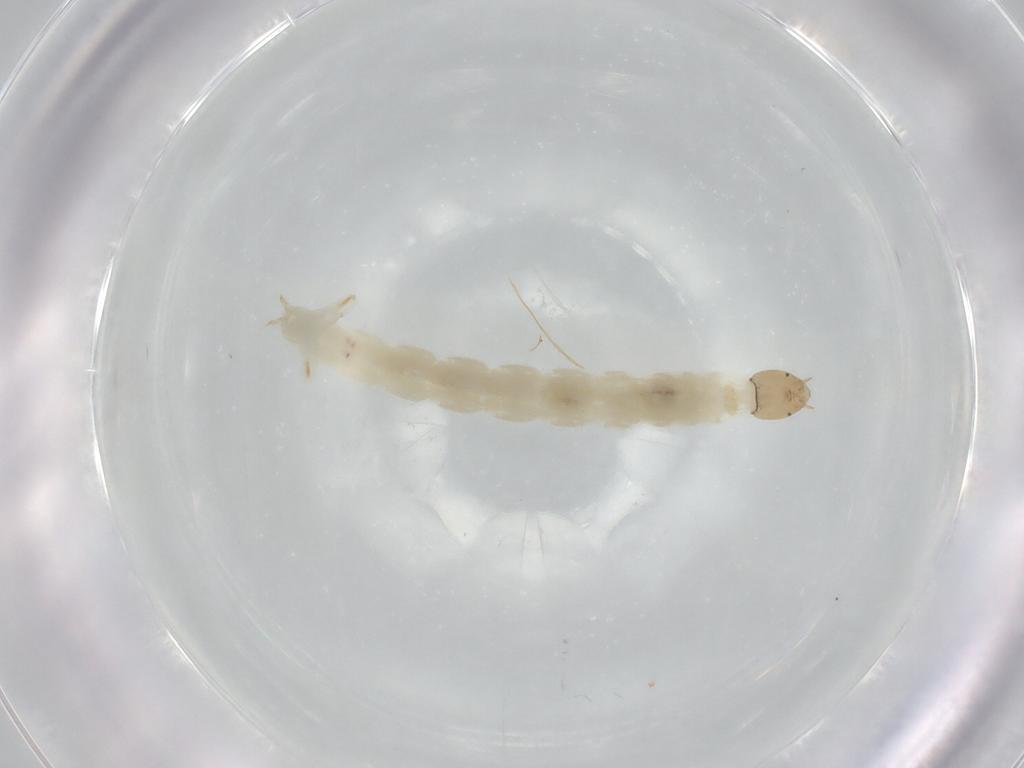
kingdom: Animalia
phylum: Arthropoda
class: Insecta
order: Diptera
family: Chironomidae
